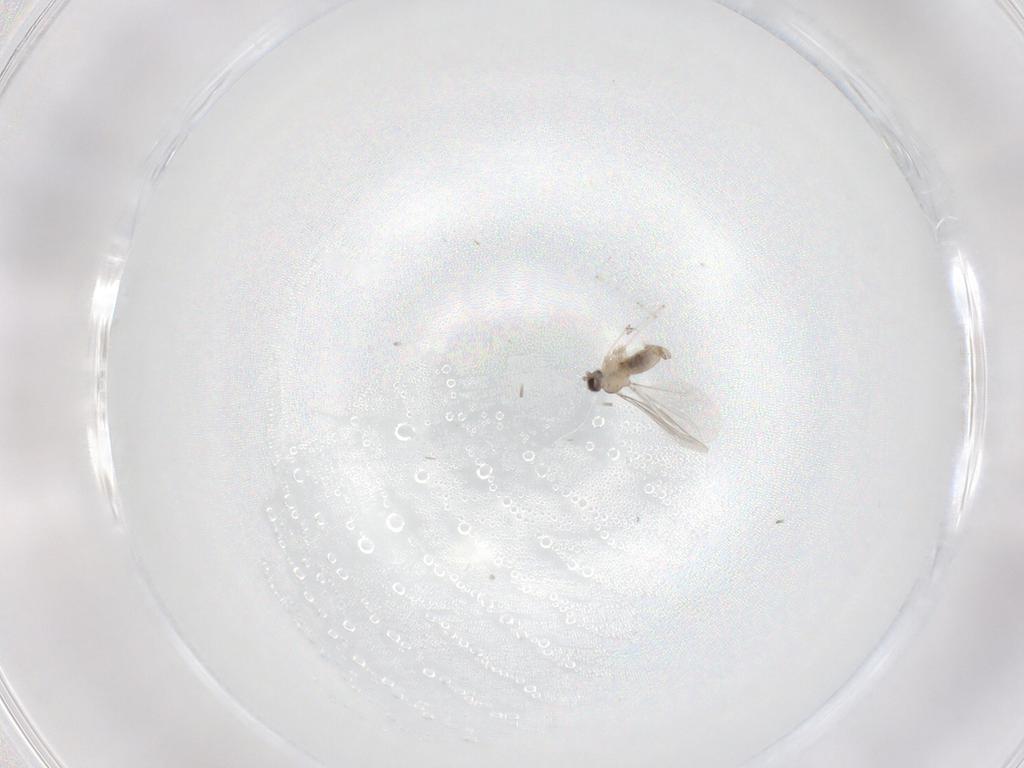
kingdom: Animalia
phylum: Arthropoda
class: Insecta
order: Diptera
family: Cecidomyiidae
